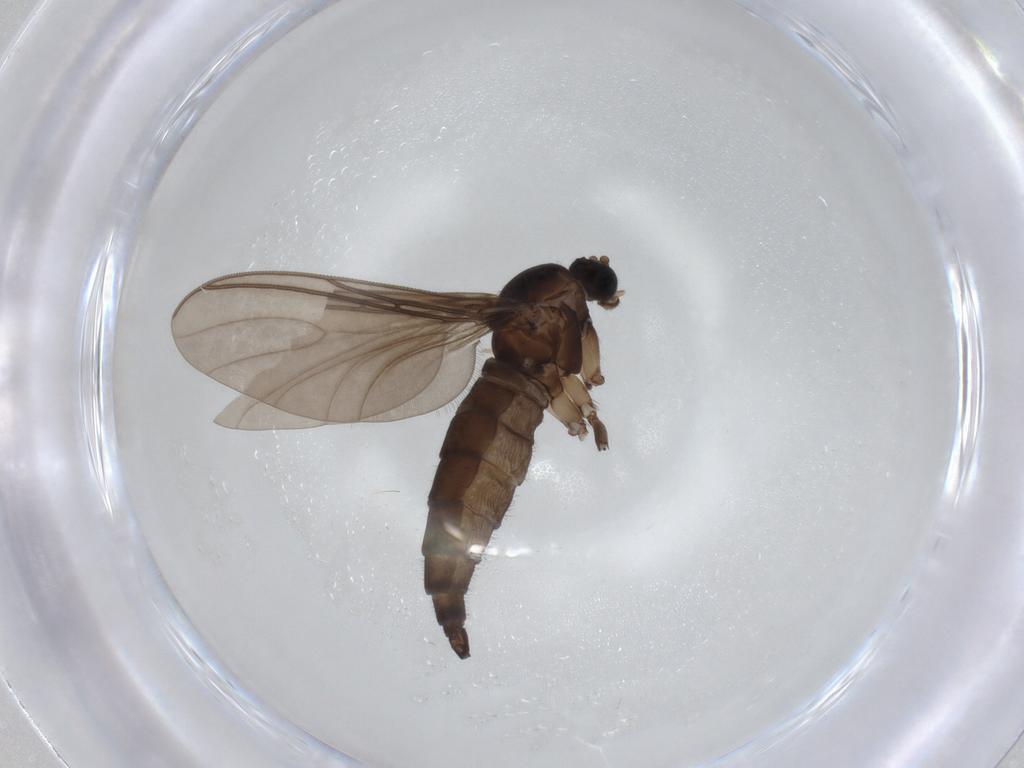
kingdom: Animalia
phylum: Arthropoda
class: Insecta
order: Diptera
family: Sciaridae
